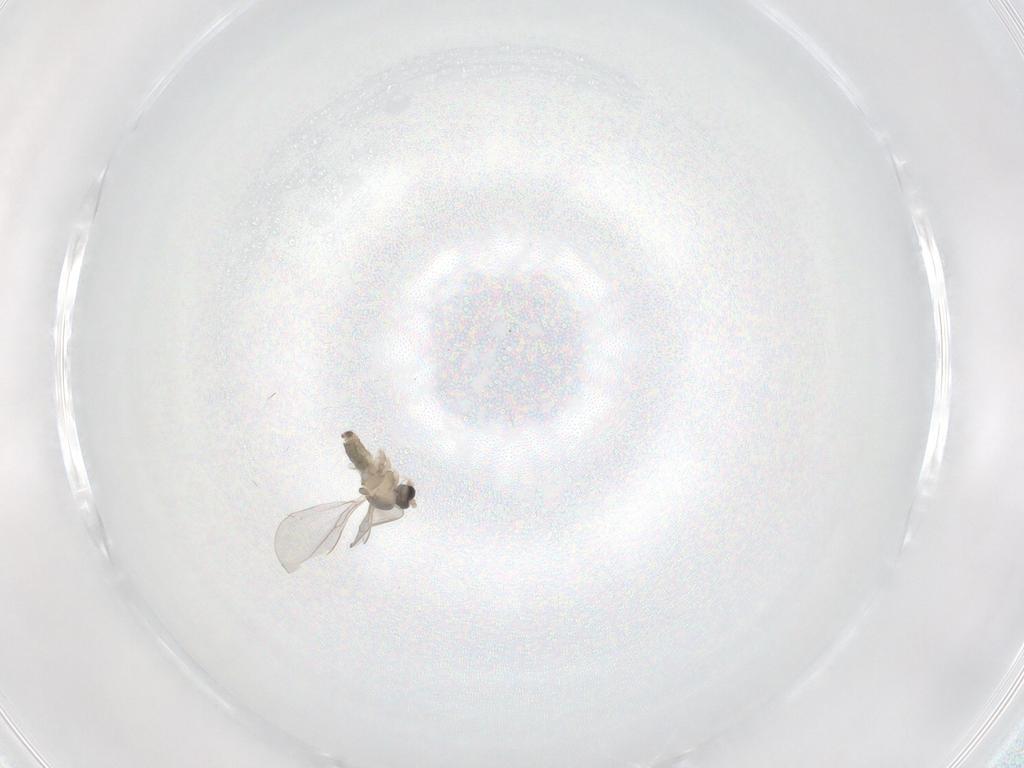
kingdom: Animalia
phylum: Arthropoda
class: Insecta
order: Diptera
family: Cecidomyiidae
